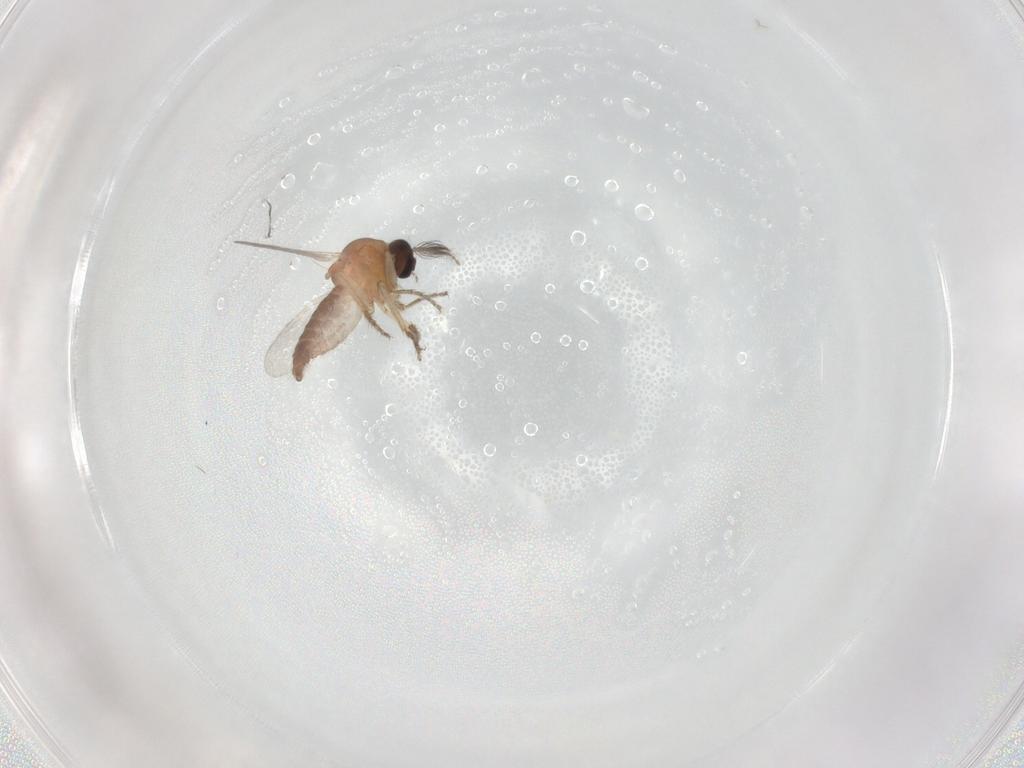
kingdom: Animalia
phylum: Arthropoda
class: Insecta
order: Diptera
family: Ceratopogonidae
